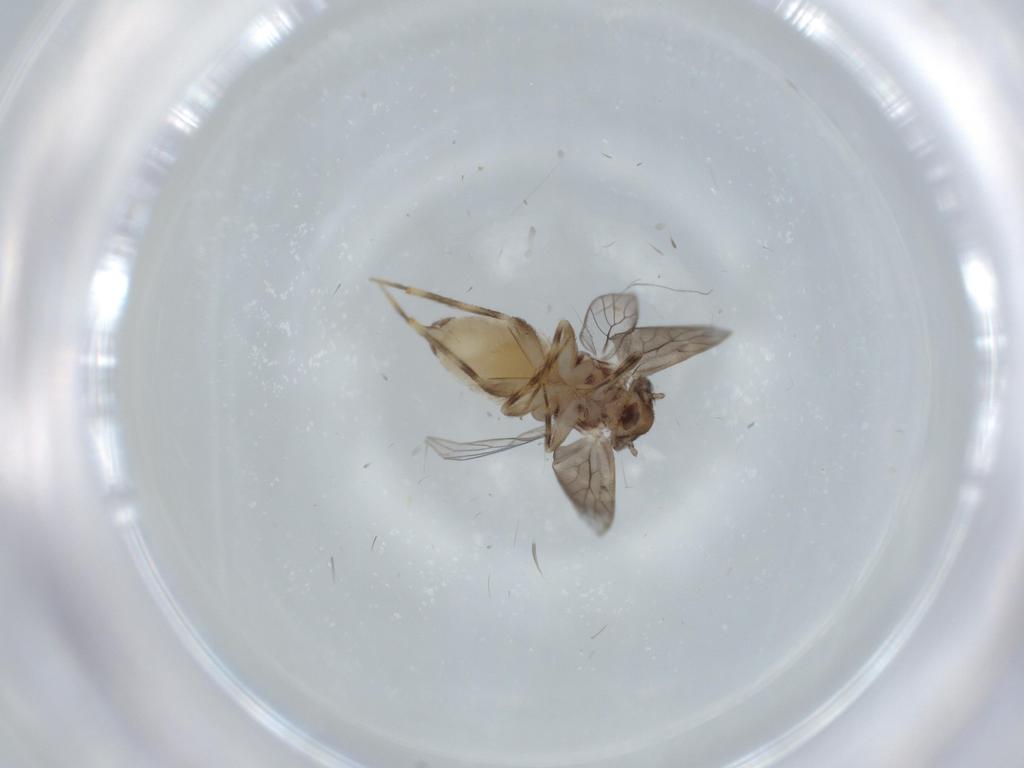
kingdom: Animalia
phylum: Arthropoda
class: Insecta
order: Psocodea
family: Lepidopsocidae
